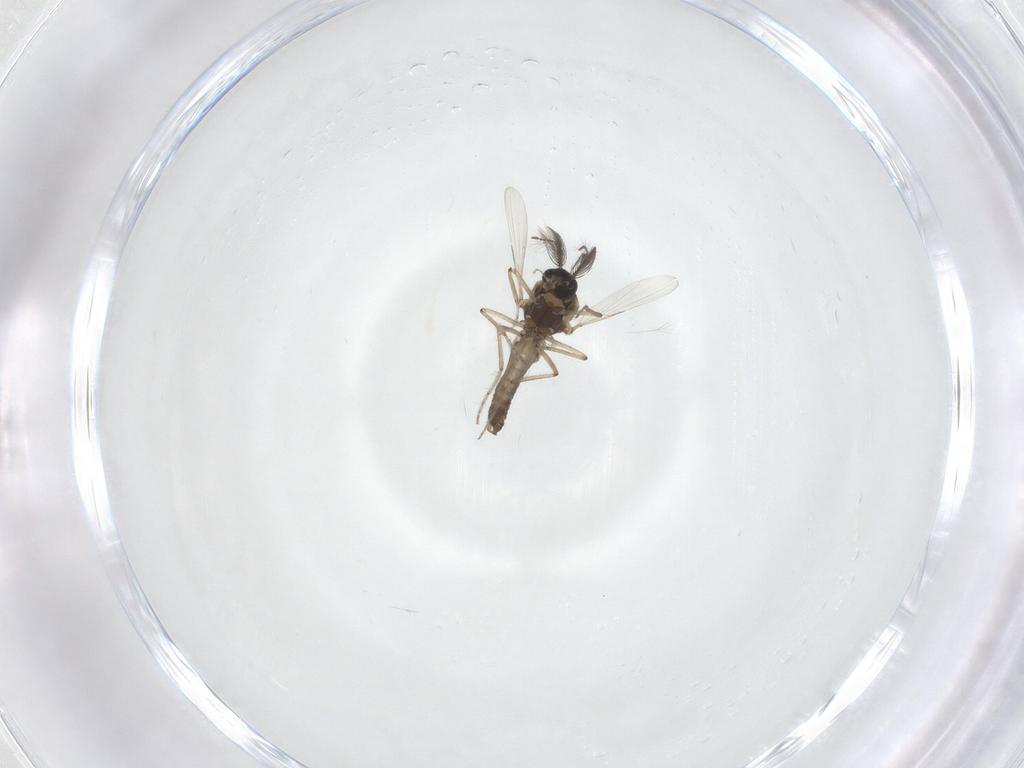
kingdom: Animalia
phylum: Arthropoda
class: Insecta
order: Diptera
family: Ceratopogonidae
